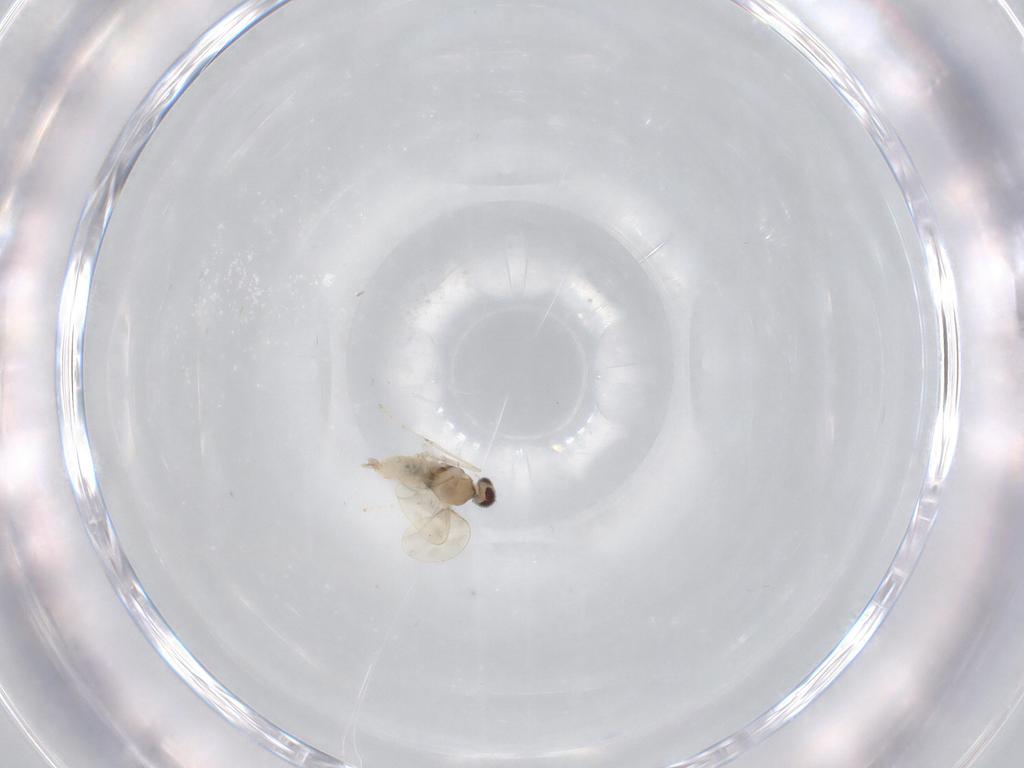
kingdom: Animalia
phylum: Arthropoda
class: Insecta
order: Diptera
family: Cecidomyiidae
